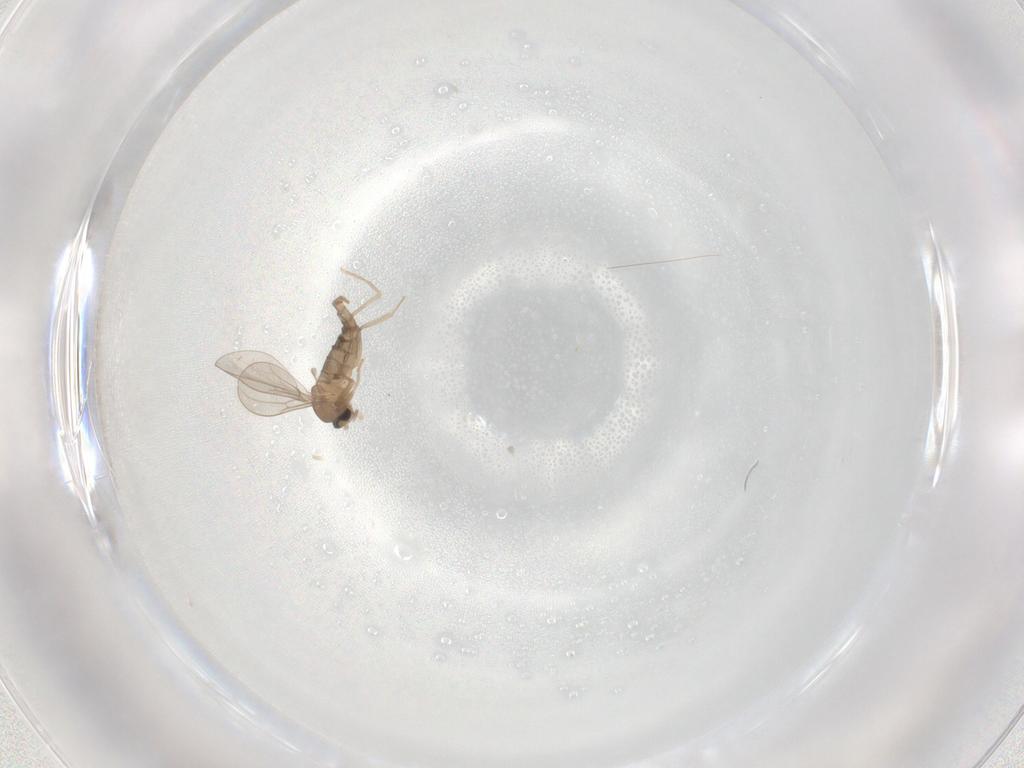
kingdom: Animalia
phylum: Arthropoda
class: Insecta
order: Diptera
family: Cecidomyiidae
